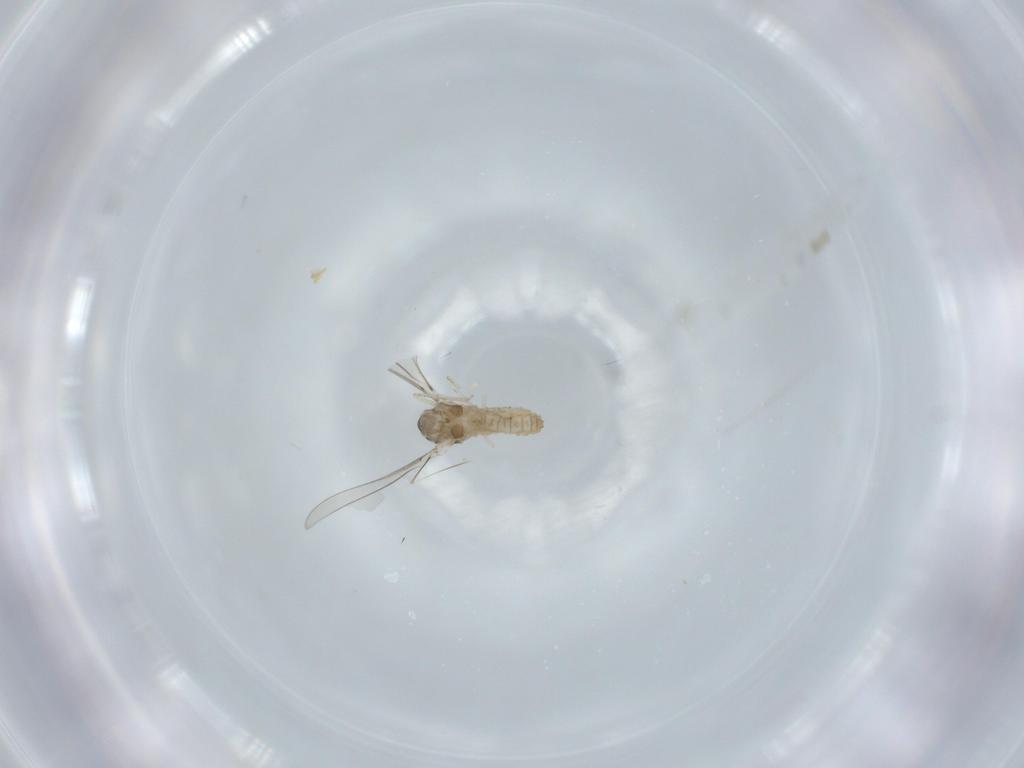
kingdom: Animalia
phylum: Arthropoda
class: Insecta
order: Diptera
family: Cecidomyiidae
